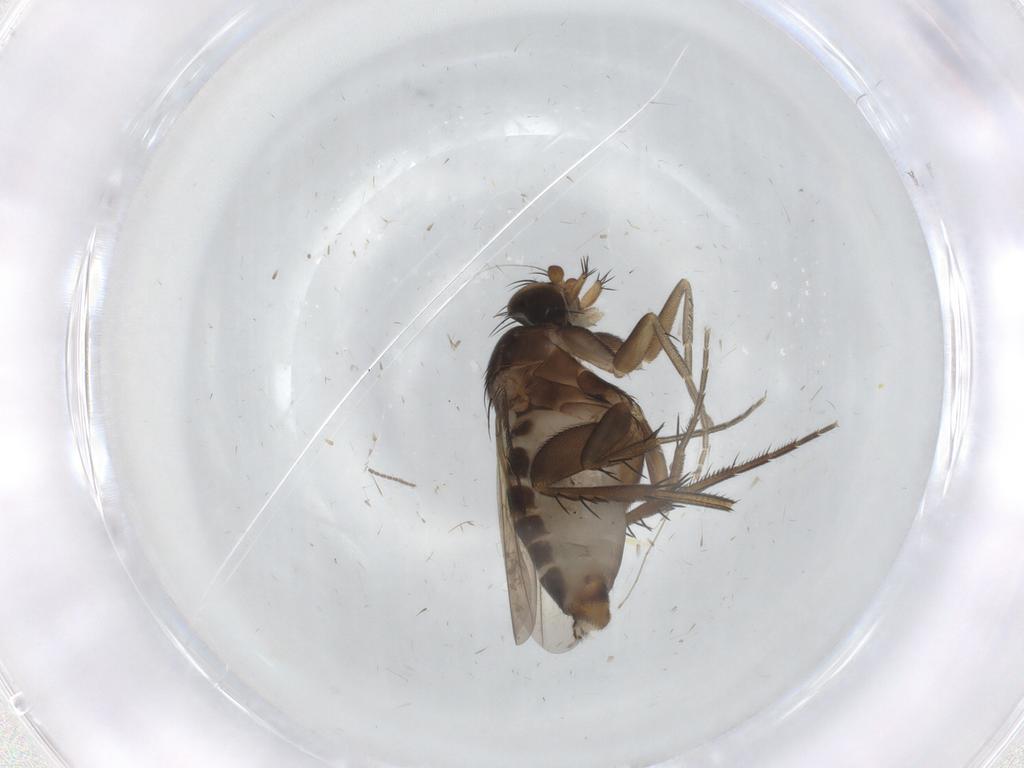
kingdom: Animalia
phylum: Arthropoda
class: Insecta
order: Diptera
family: Phoridae
